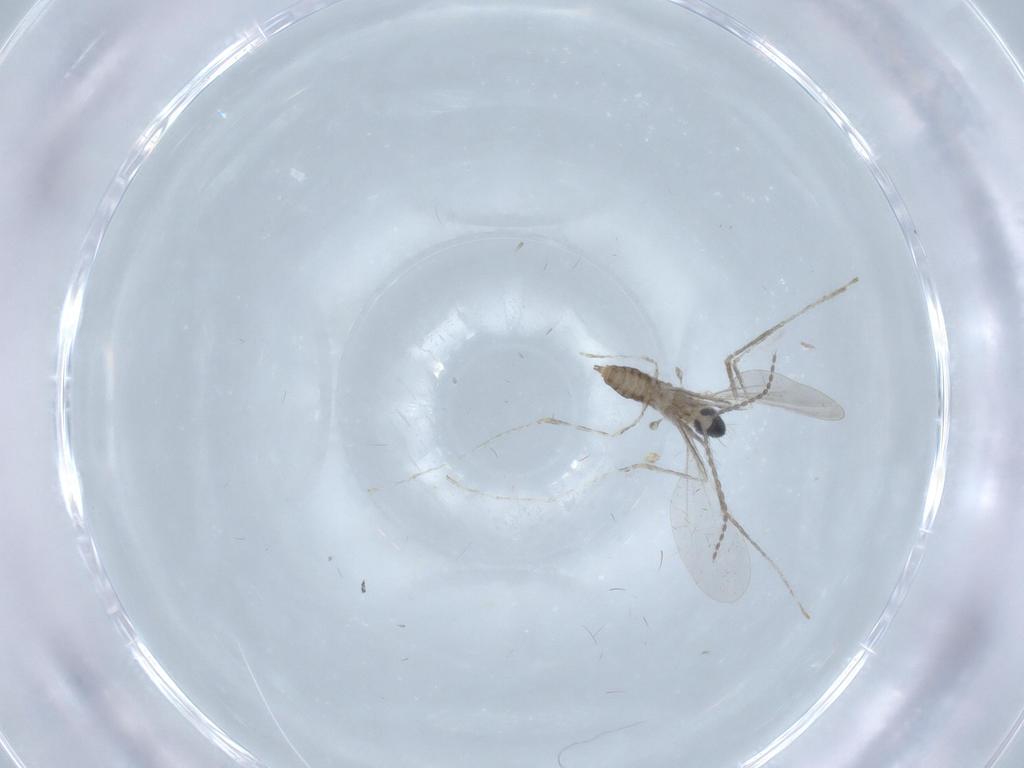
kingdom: Animalia
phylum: Arthropoda
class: Insecta
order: Diptera
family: Cecidomyiidae
